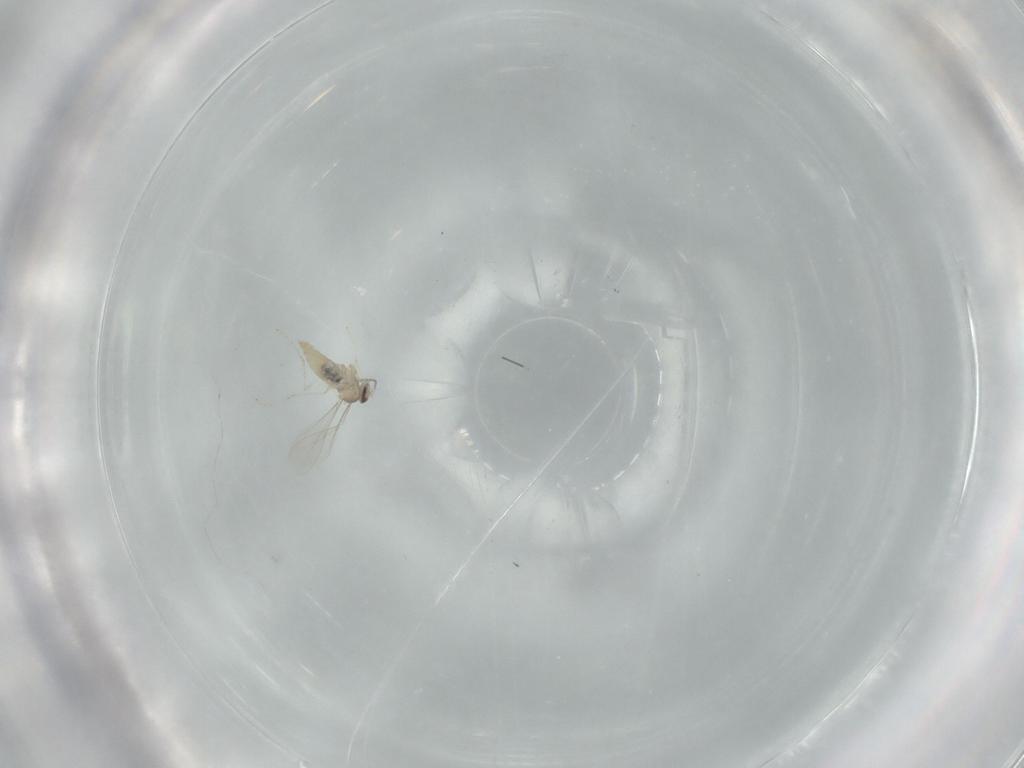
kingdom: Animalia
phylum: Arthropoda
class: Insecta
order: Diptera
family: Cecidomyiidae
